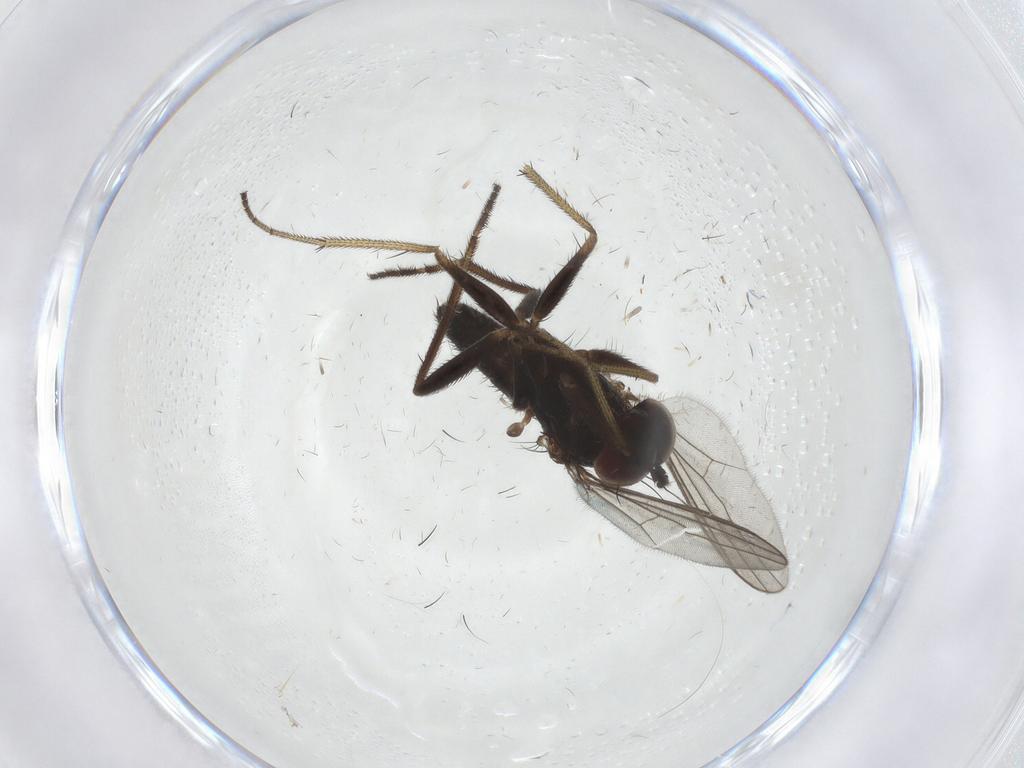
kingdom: Animalia
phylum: Arthropoda
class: Insecta
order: Diptera
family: Dolichopodidae
